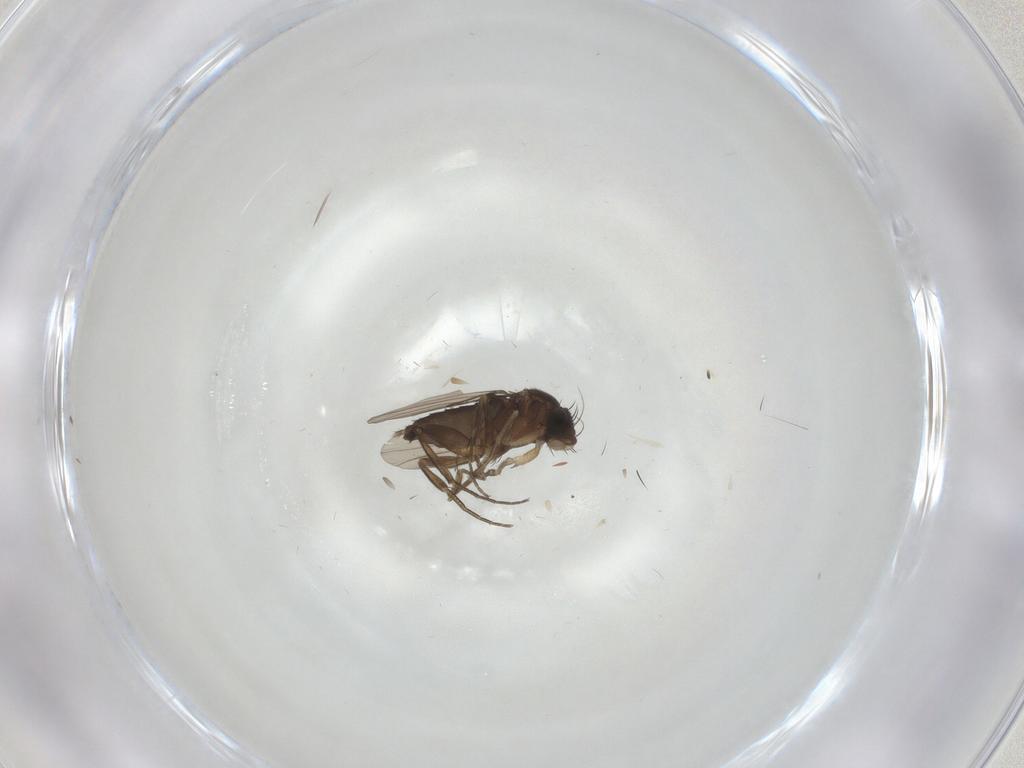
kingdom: Animalia
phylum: Arthropoda
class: Insecta
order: Diptera
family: Phoridae
